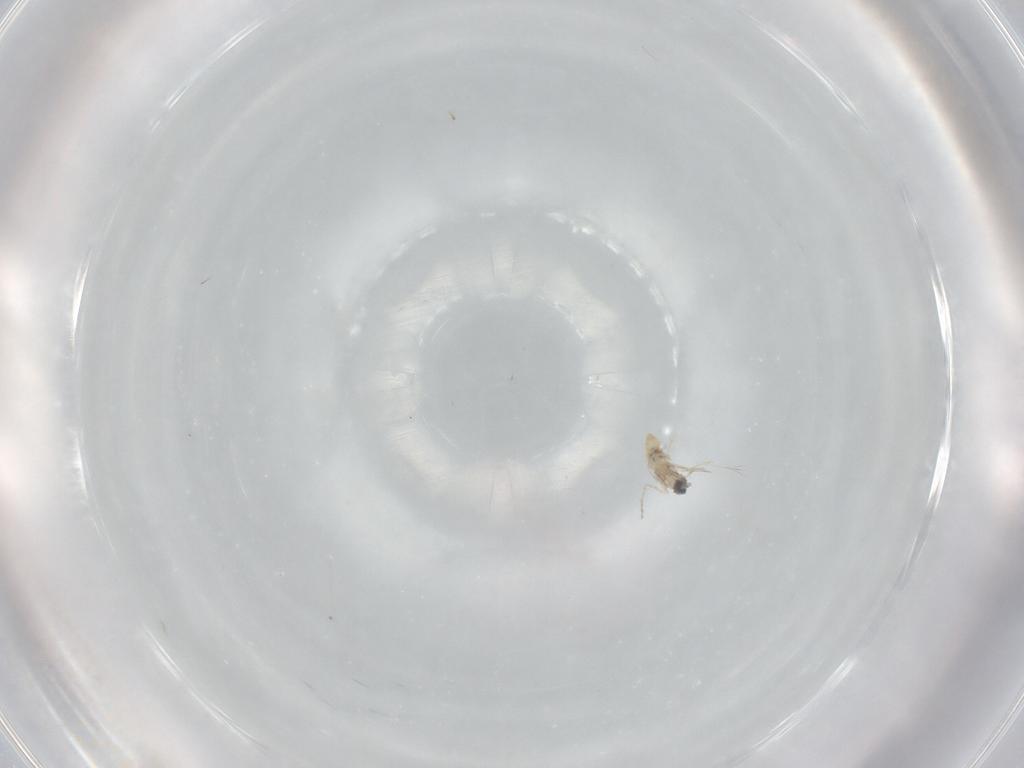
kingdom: Animalia
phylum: Arthropoda
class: Insecta
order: Diptera
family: Cecidomyiidae
